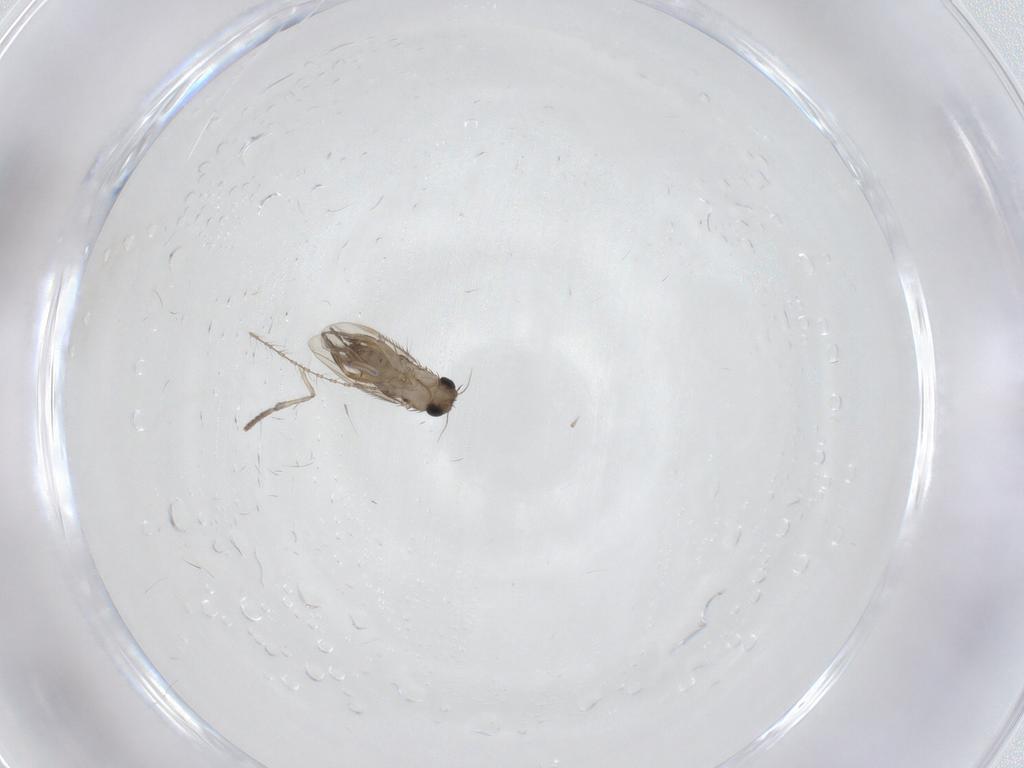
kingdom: Animalia
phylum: Arthropoda
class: Insecta
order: Diptera
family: Phoridae
